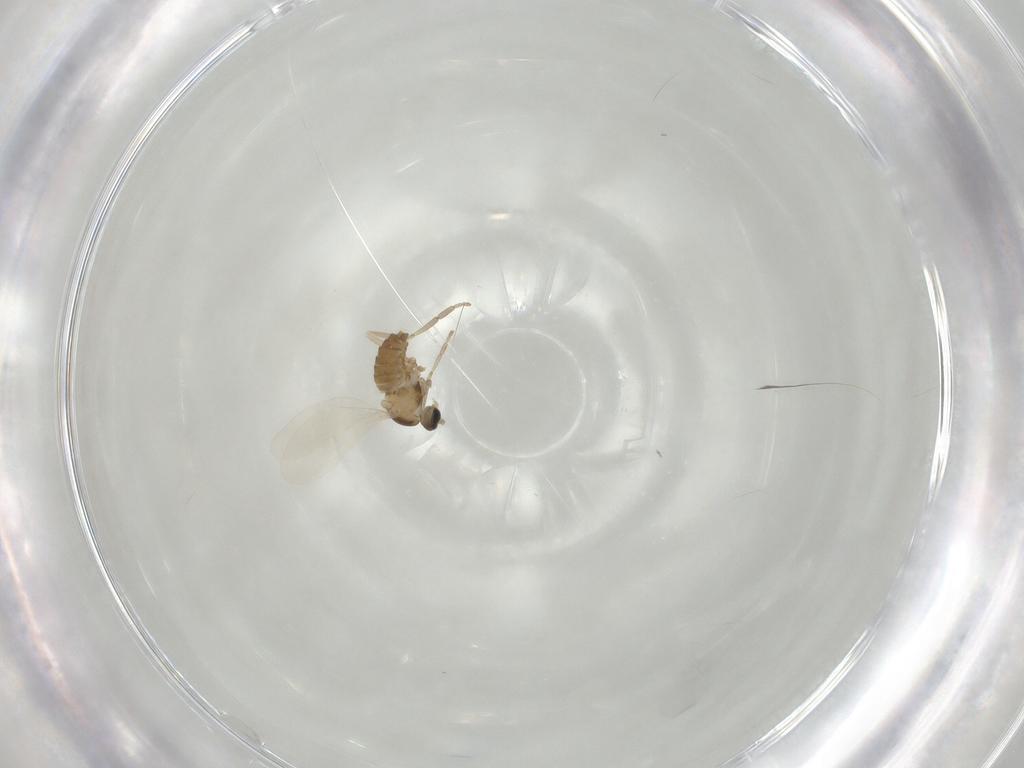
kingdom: Animalia
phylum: Arthropoda
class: Insecta
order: Diptera
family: Cecidomyiidae
